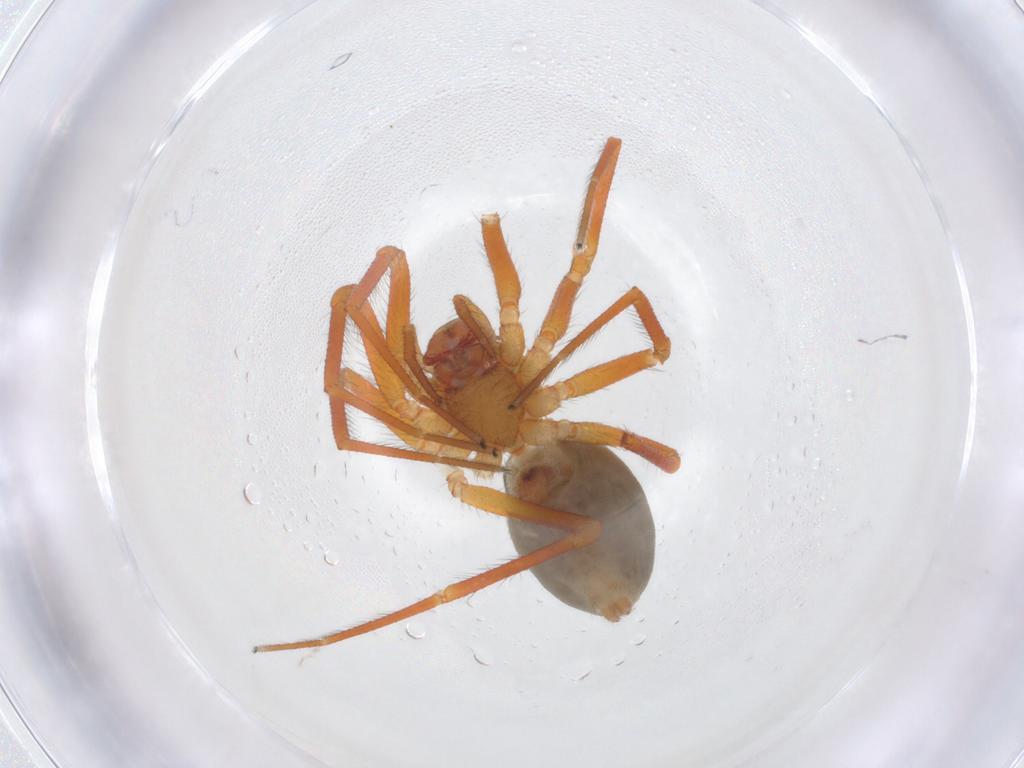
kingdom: Animalia
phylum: Arthropoda
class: Arachnida
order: Araneae
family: Linyphiidae
